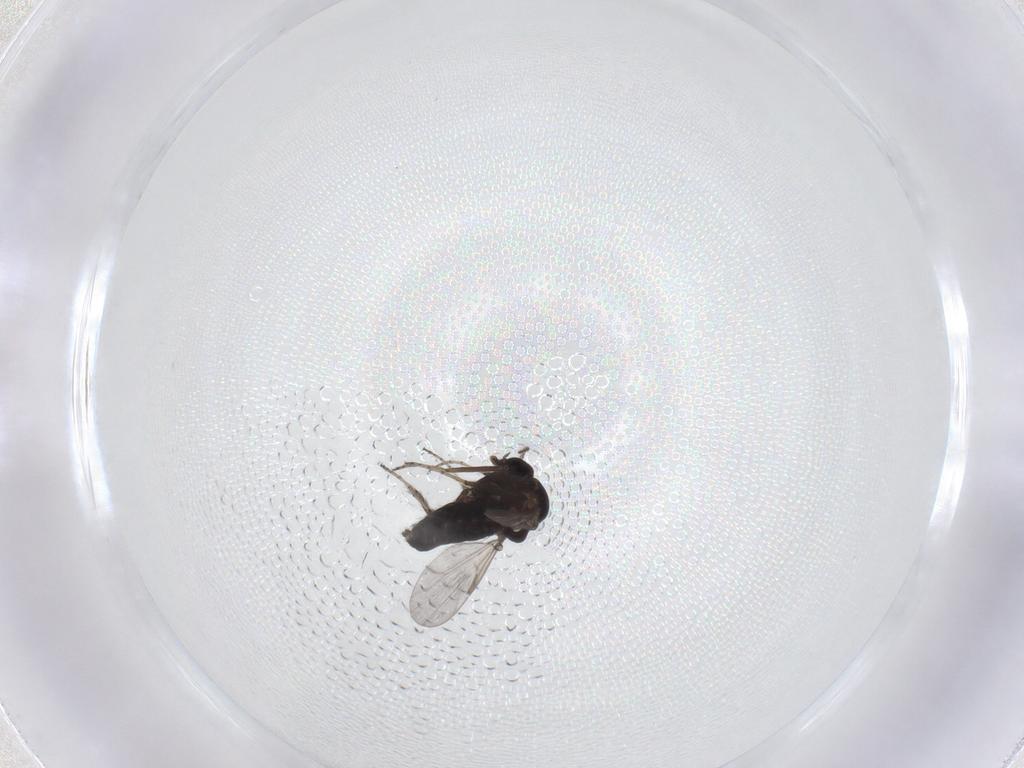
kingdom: Animalia
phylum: Arthropoda
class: Insecta
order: Diptera
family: Ceratopogonidae
